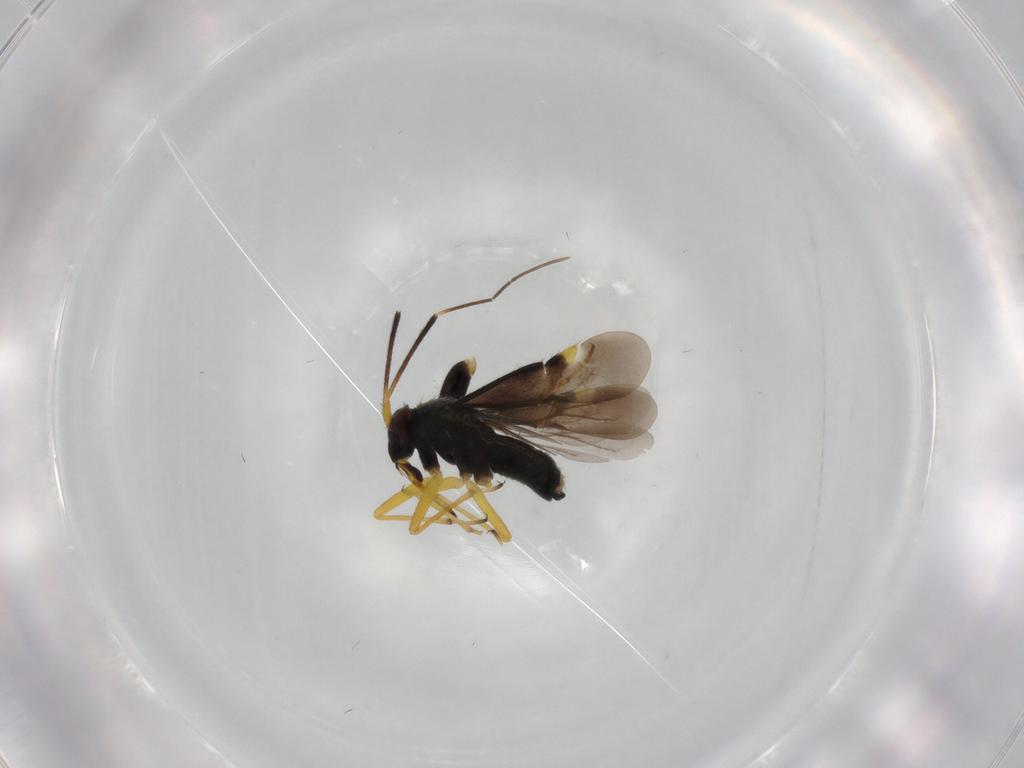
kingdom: Animalia
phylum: Arthropoda
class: Insecta
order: Hemiptera
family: Miridae
